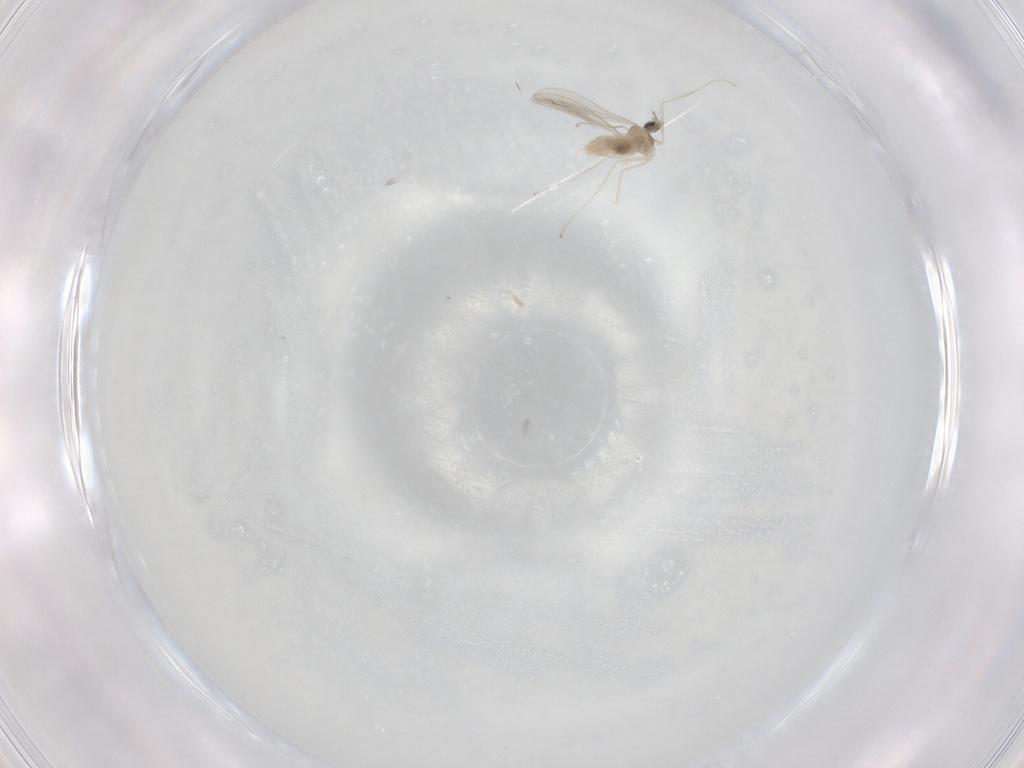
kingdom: Animalia
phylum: Arthropoda
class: Insecta
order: Diptera
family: Cecidomyiidae
